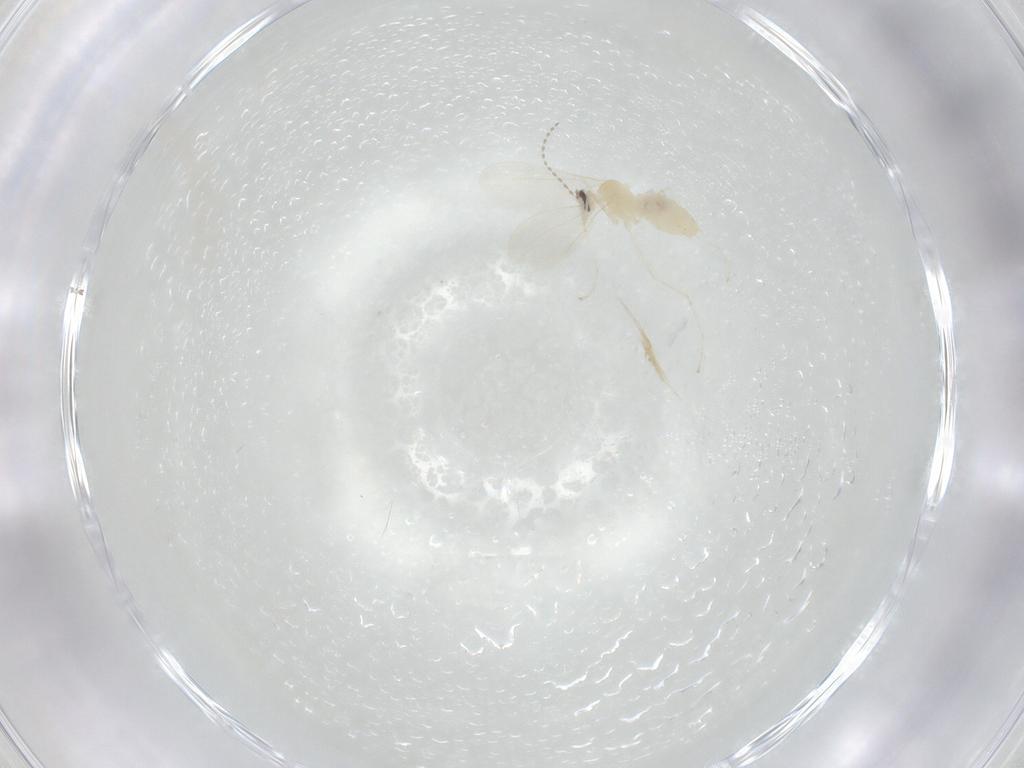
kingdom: Animalia
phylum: Arthropoda
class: Insecta
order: Diptera
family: Cecidomyiidae
